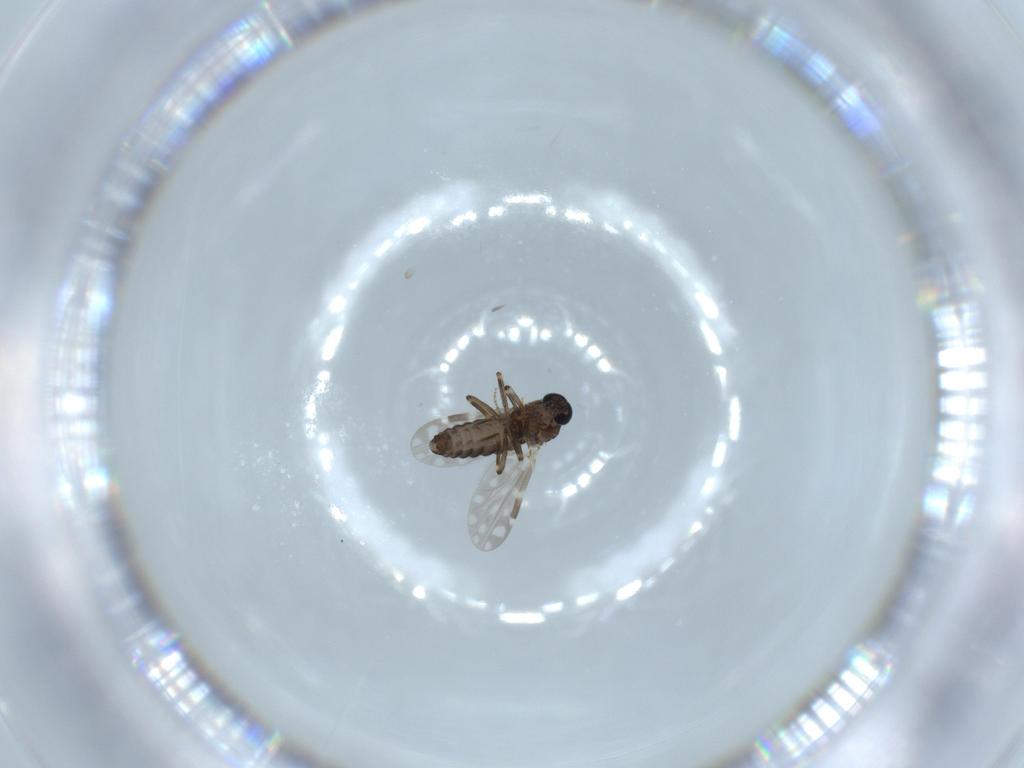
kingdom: Animalia
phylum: Arthropoda
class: Insecta
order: Diptera
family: Ceratopogonidae
